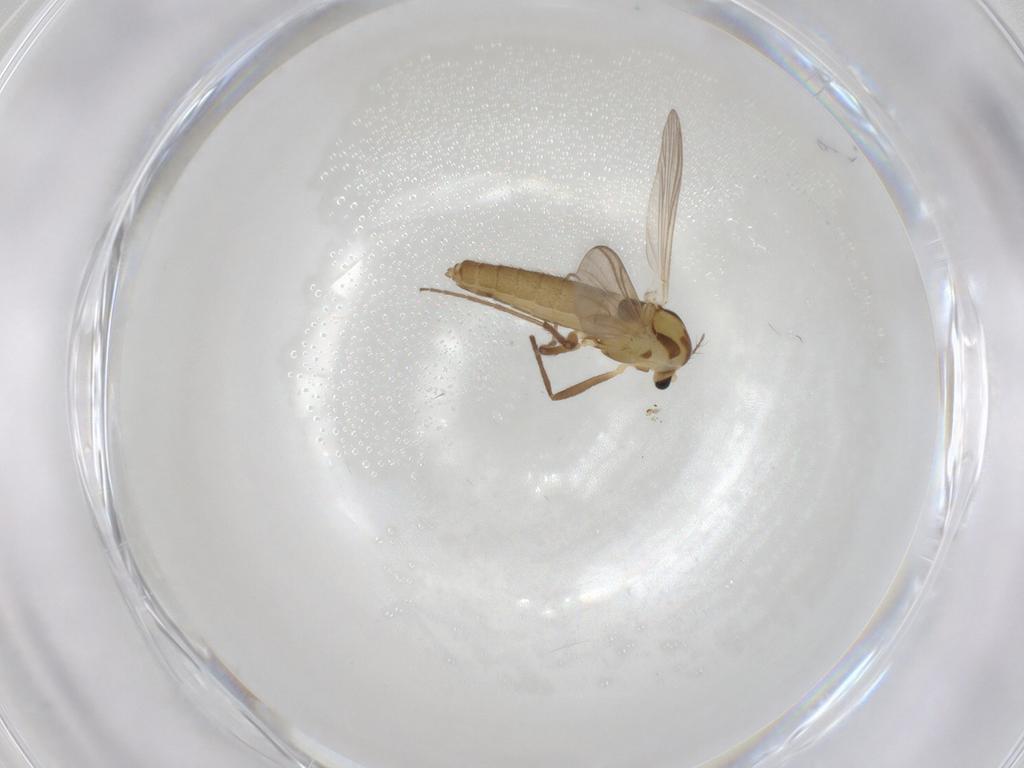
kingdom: Animalia
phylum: Arthropoda
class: Insecta
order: Diptera
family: Chironomidae
